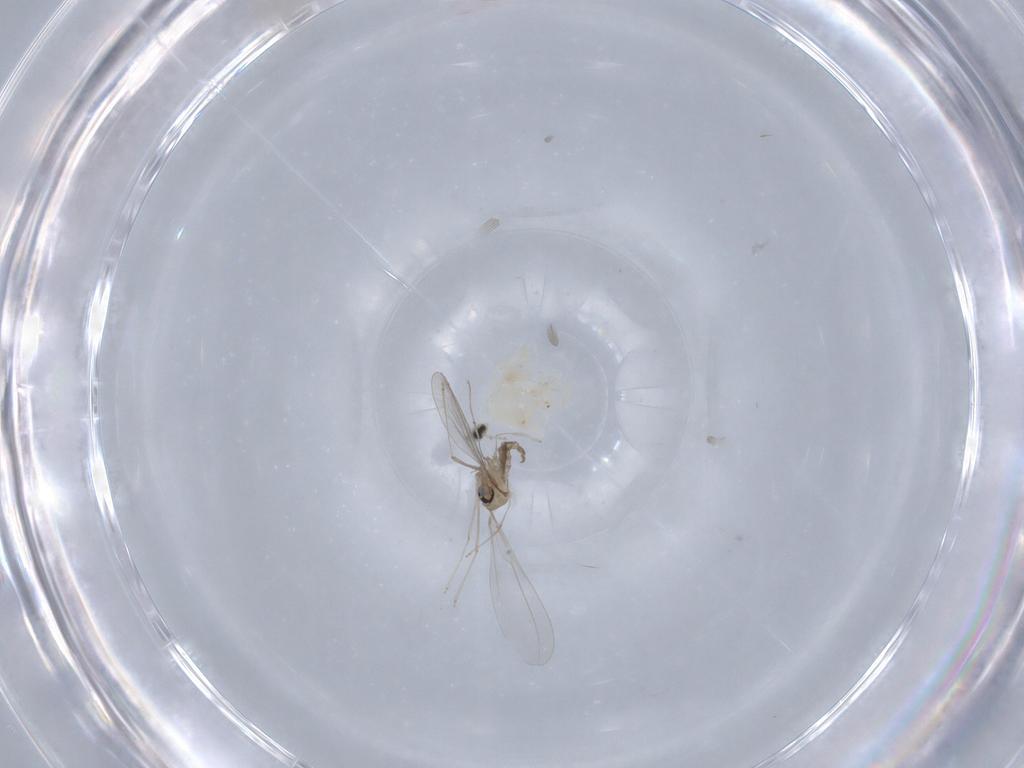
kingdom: Animalia
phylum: Arthropoda
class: Insecta
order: Diptera
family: Cecidomyiidae
